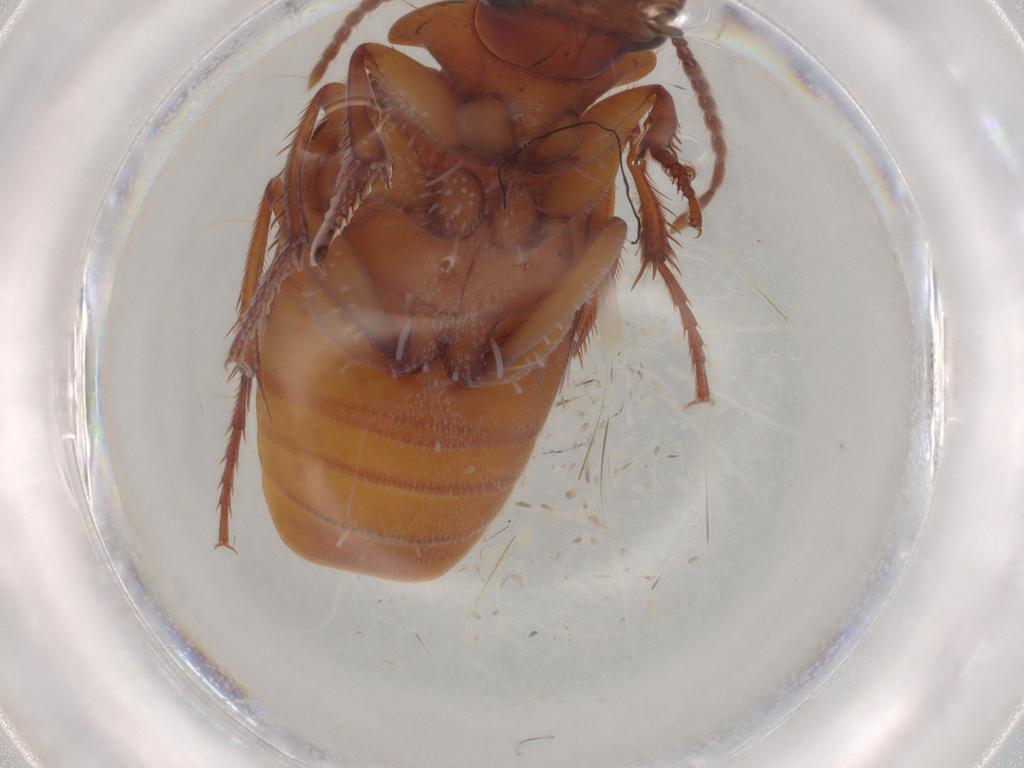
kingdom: Animalia
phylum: Arthropoda
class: Insecta
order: Coleoptera
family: Staphylinidae
